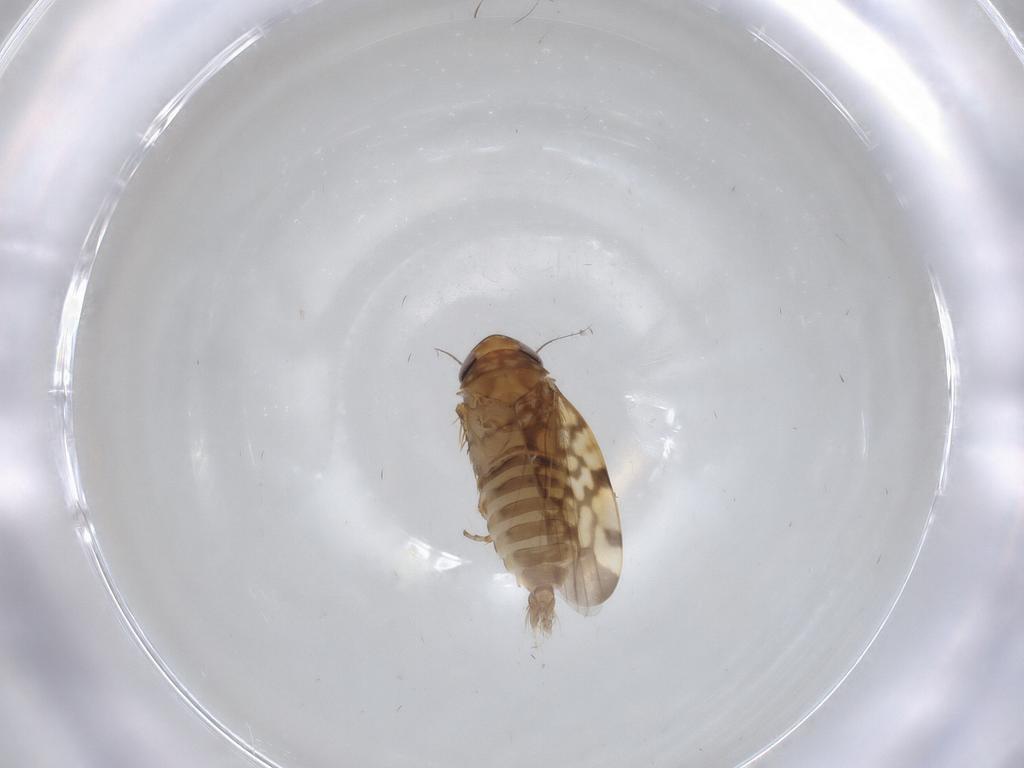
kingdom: Animalia
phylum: Arthropoda
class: Insecta
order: Hemiptera
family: Cicadellidae
